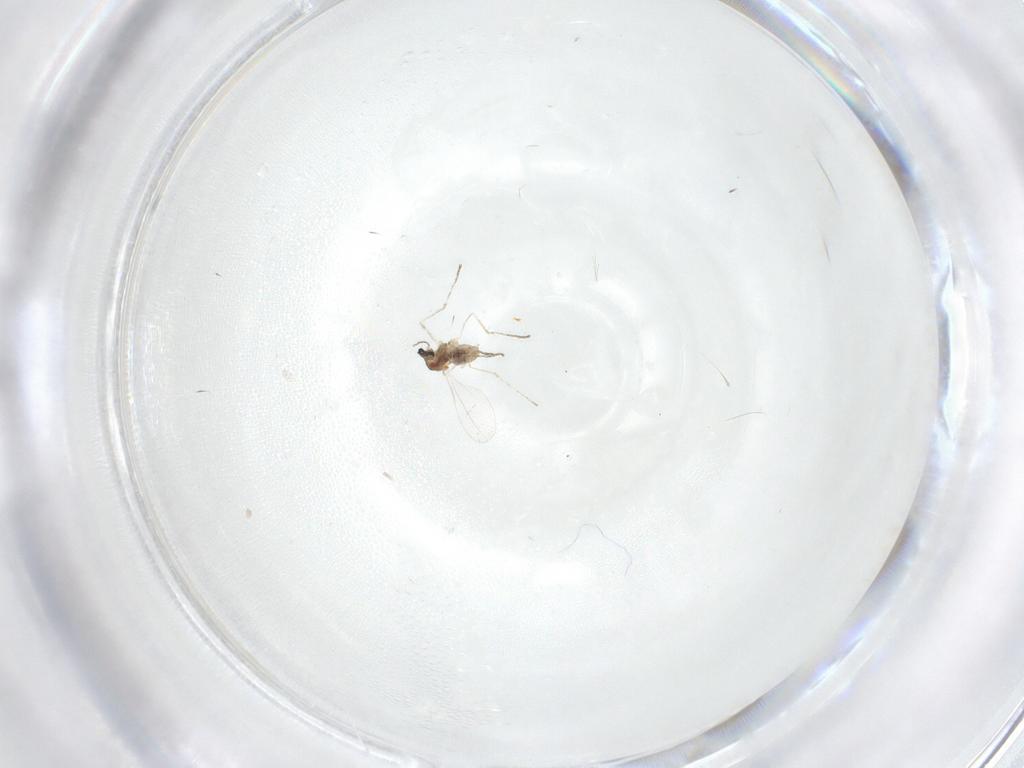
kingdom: Animalia
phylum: Arthropoda
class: Insecta
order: Diptera
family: Cecidomyiidae
